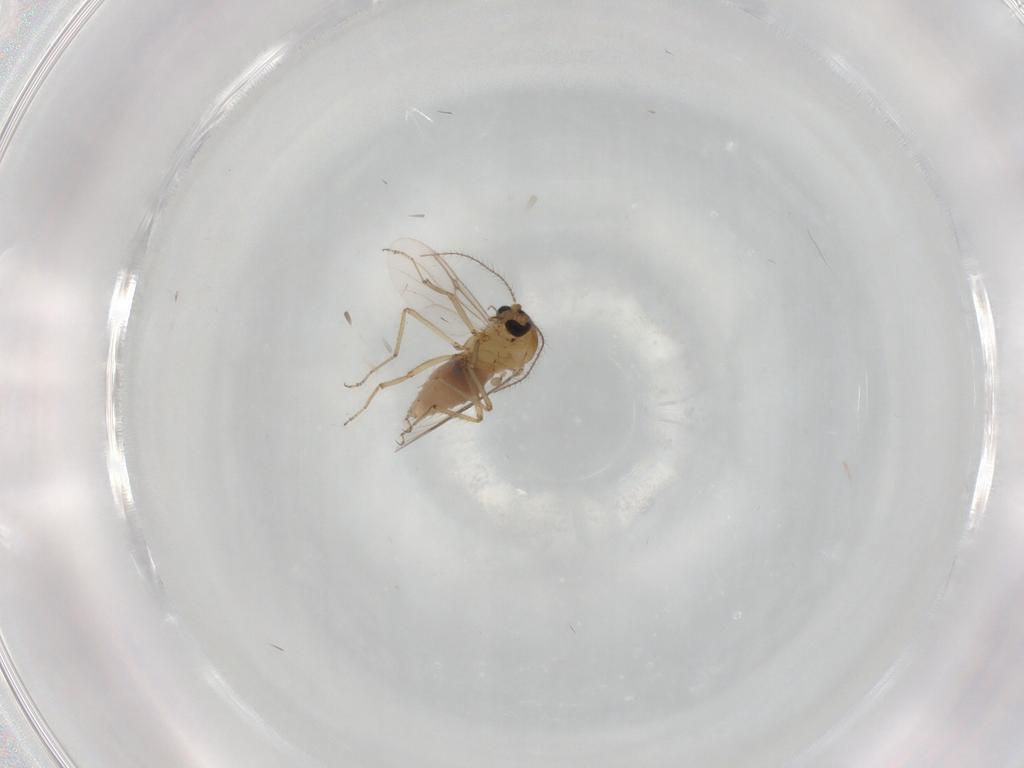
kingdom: Animalia
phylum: Arthropoda
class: Insecta
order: Diptera
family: Ceratopogonidae
